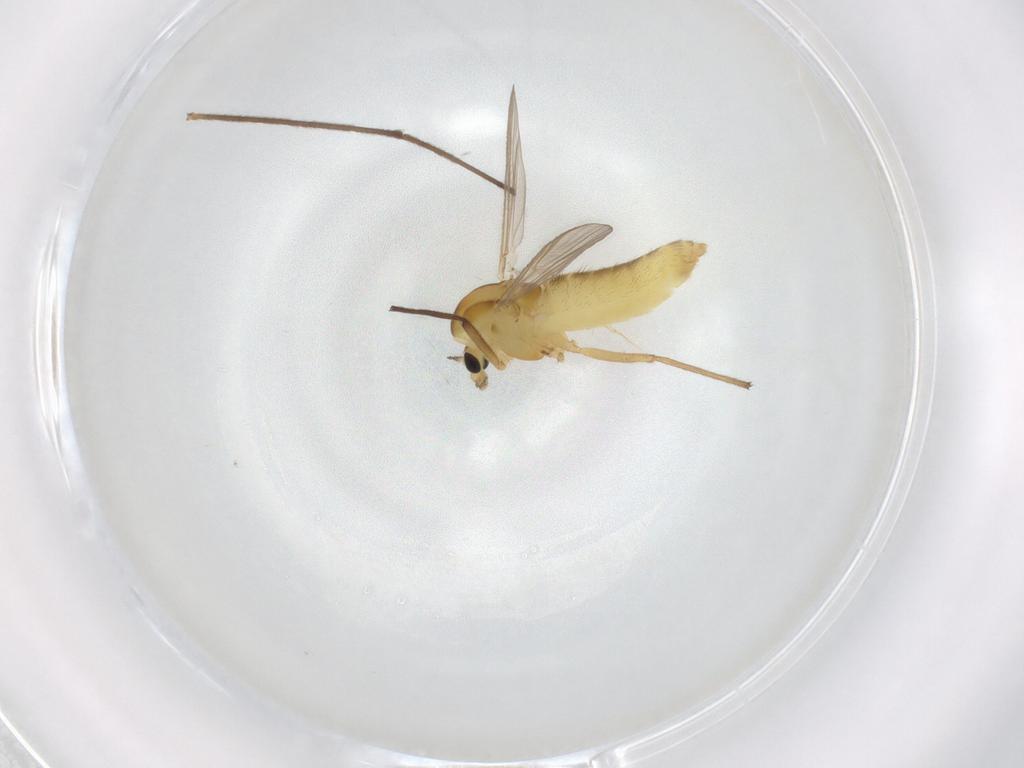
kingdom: Animalia
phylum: Arthropoda
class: Insecta
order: Diptera
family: Chironomidae
